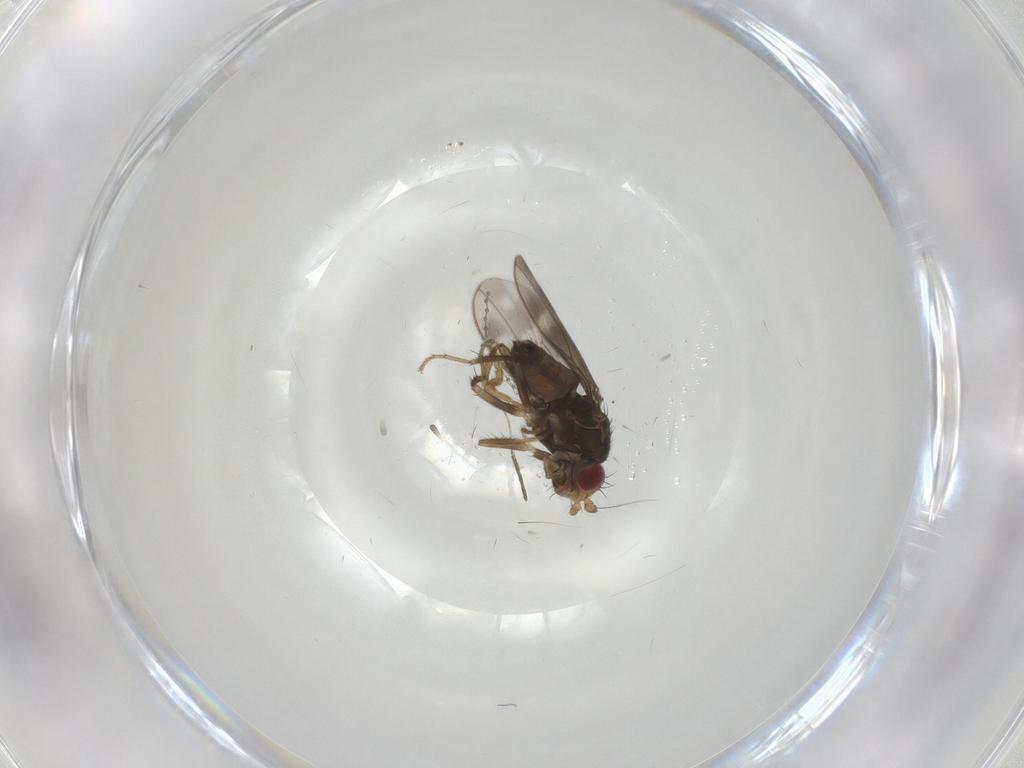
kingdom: Animalia
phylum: Arthropoda
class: Insecta
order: Diptera
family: Sphaeroceridae
